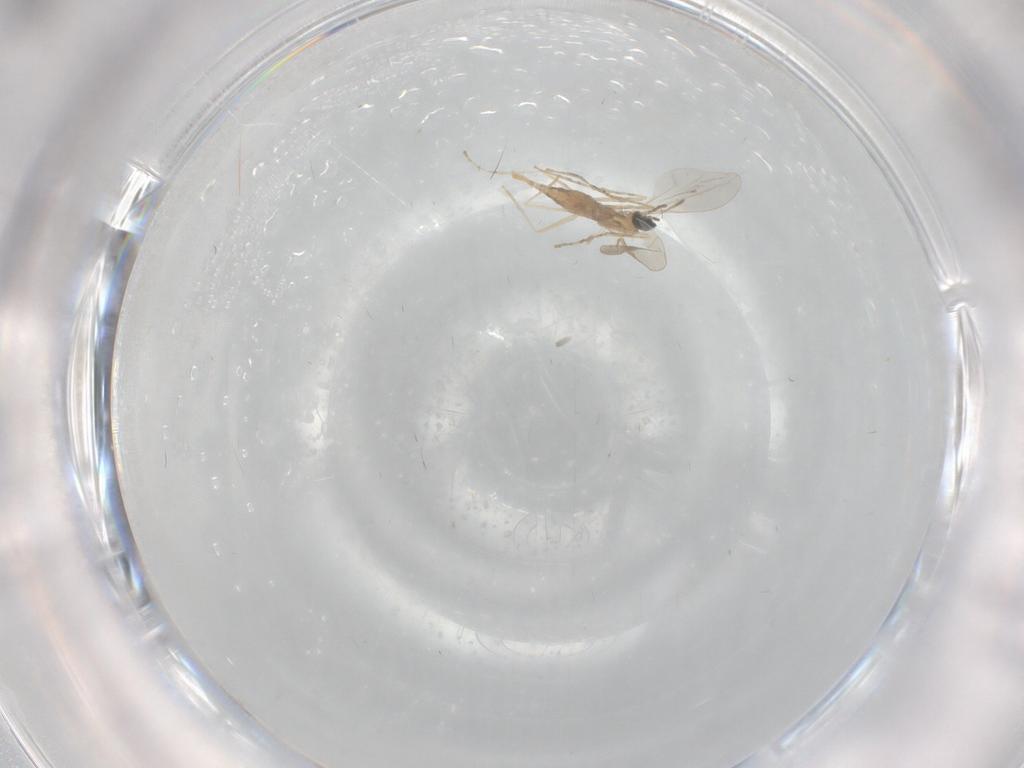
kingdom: Animalia
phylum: Arthropoda
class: Insecta
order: Diptera
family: Cecidomyiidae
